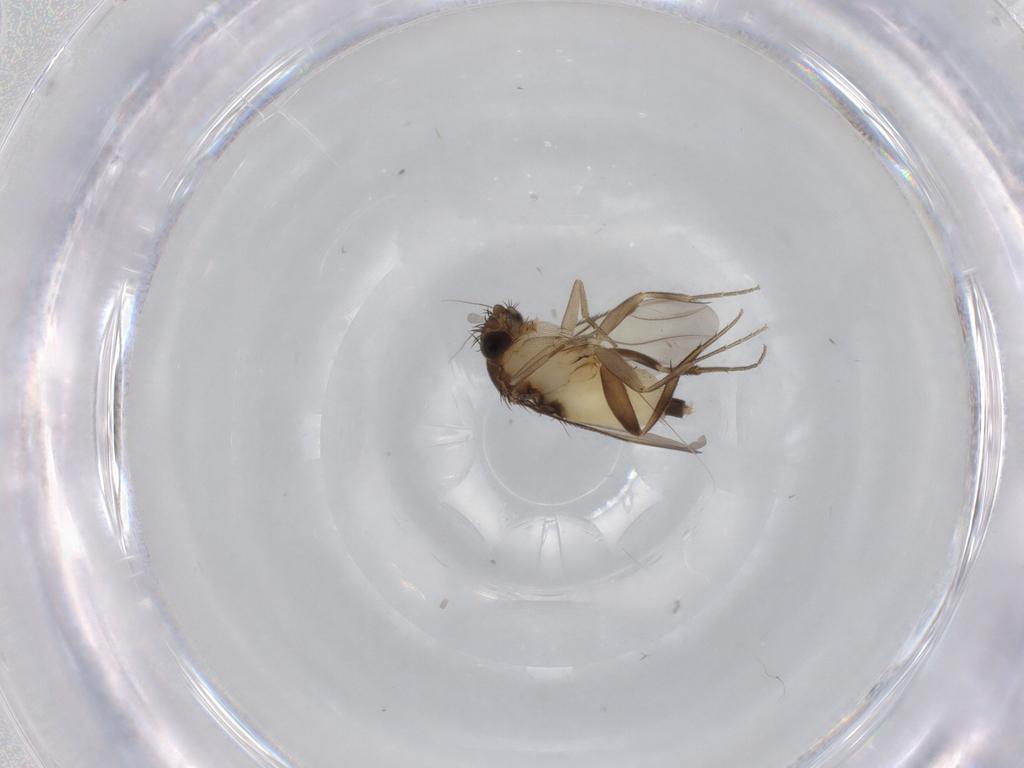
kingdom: Animalia
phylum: Arthropoda
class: Insecta
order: Diptera
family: Phoridae
